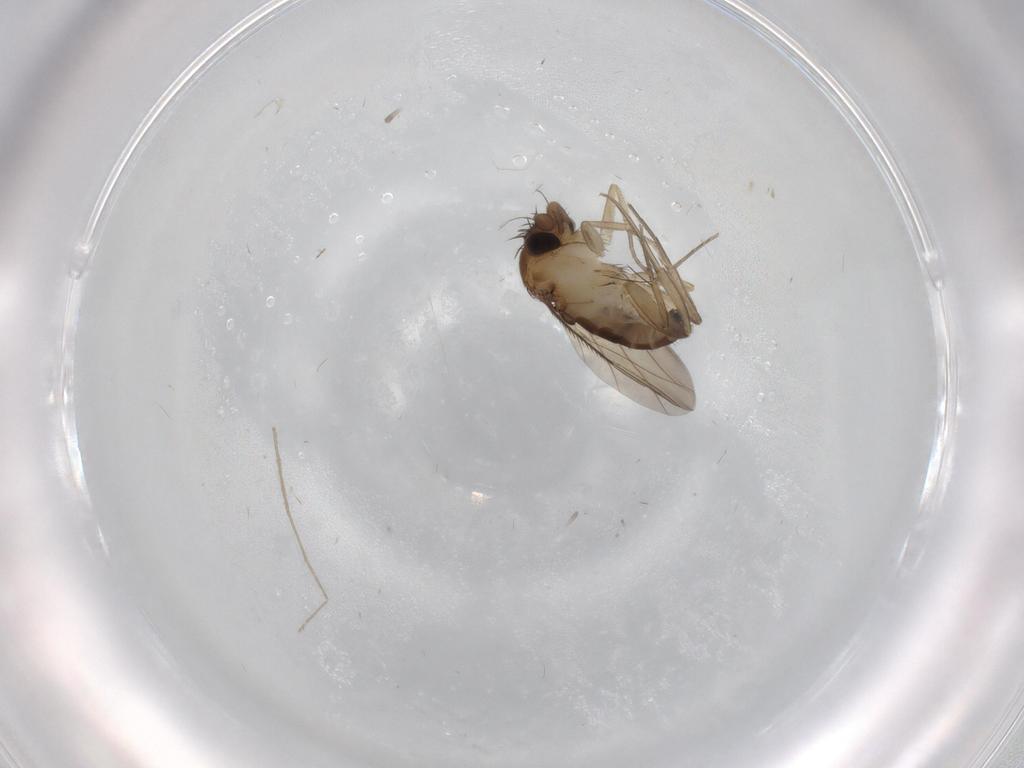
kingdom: Animalia
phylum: Arthropoda
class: Insecta
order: Diptera
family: Phoridae
